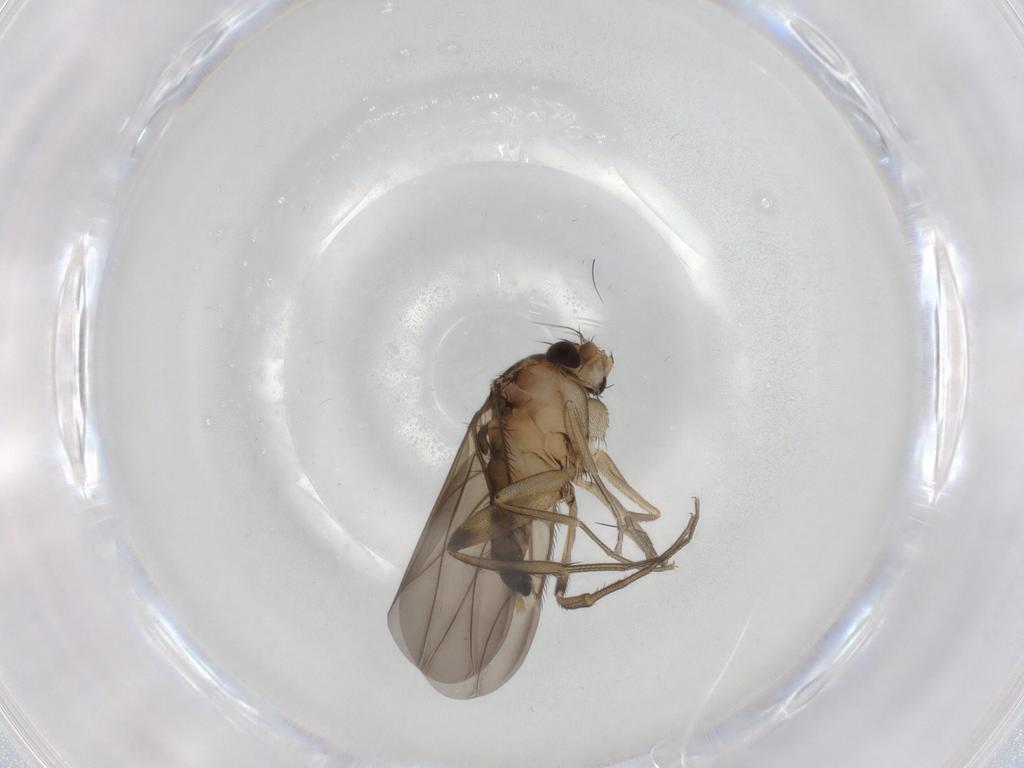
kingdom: Animalia
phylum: Arthropoda
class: Insecta
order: Diptera
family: Phoridae
